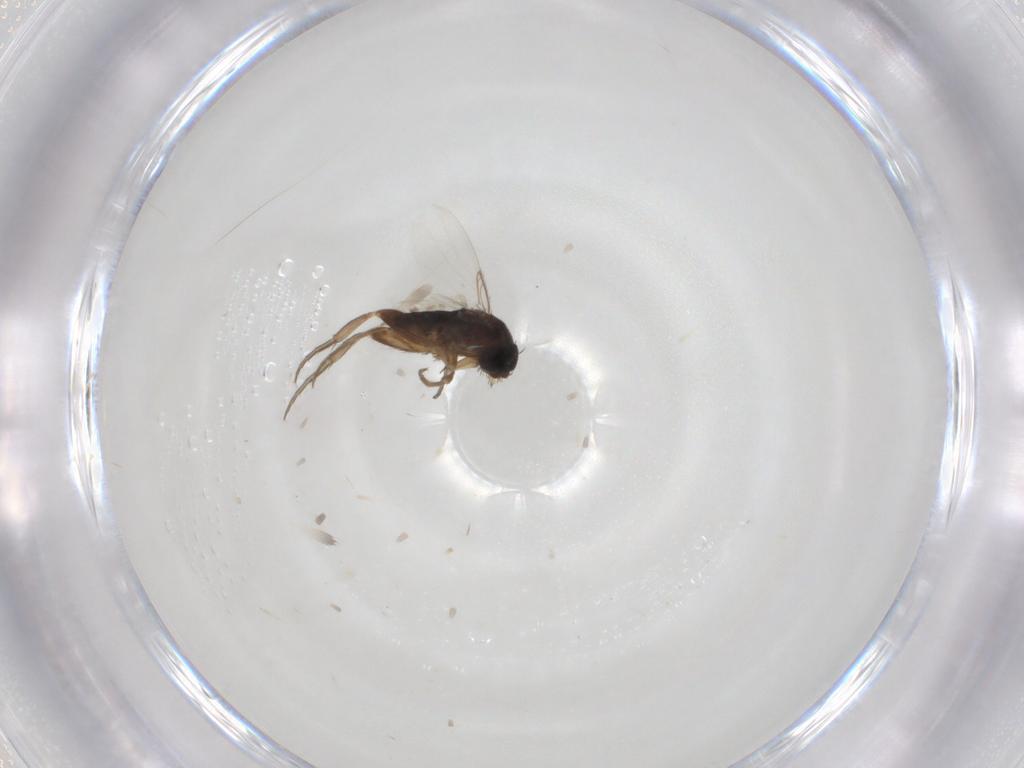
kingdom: Animalia
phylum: Arthropoda
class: Insecta
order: Diptera
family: Phoridae
